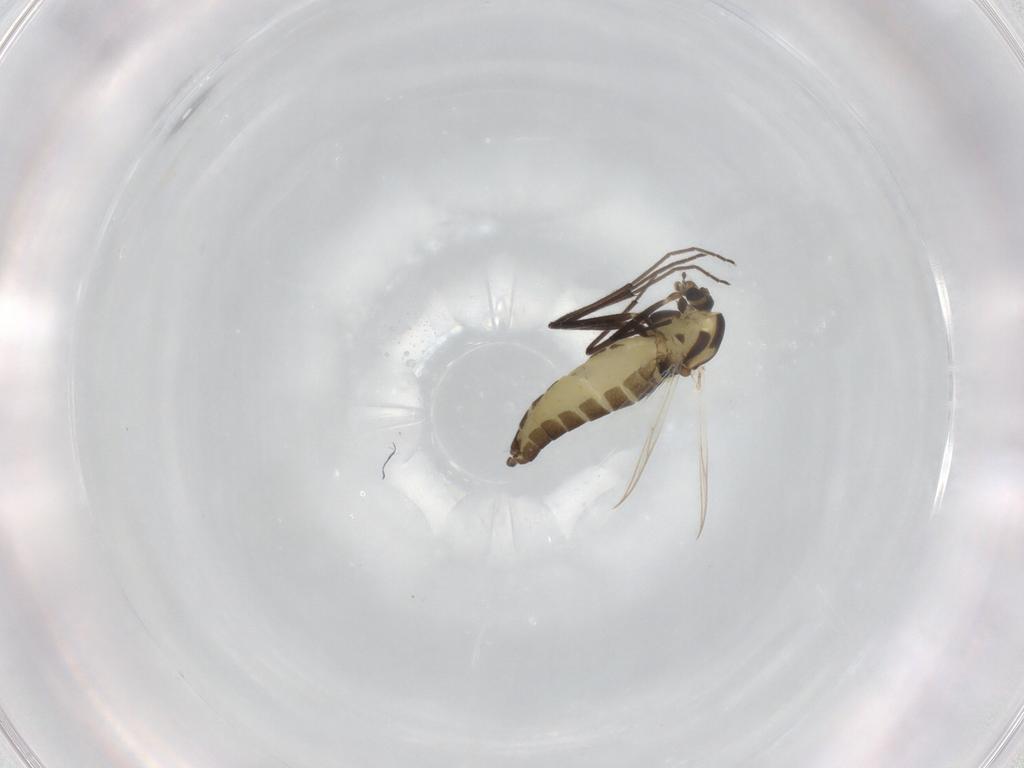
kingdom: Animalia
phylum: Arthropoda
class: Insecta
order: Diptera
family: Chironomidae
